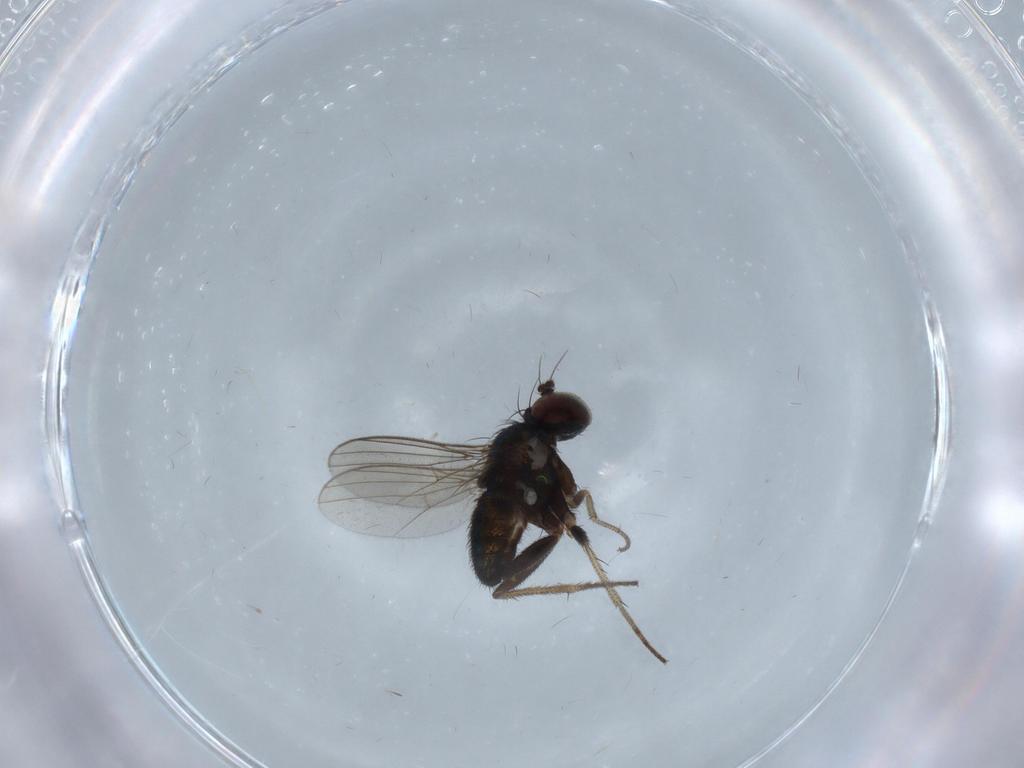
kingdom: Animalia
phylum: Arthropoda
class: Insecta
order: Diptera
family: Dolichopodidae
